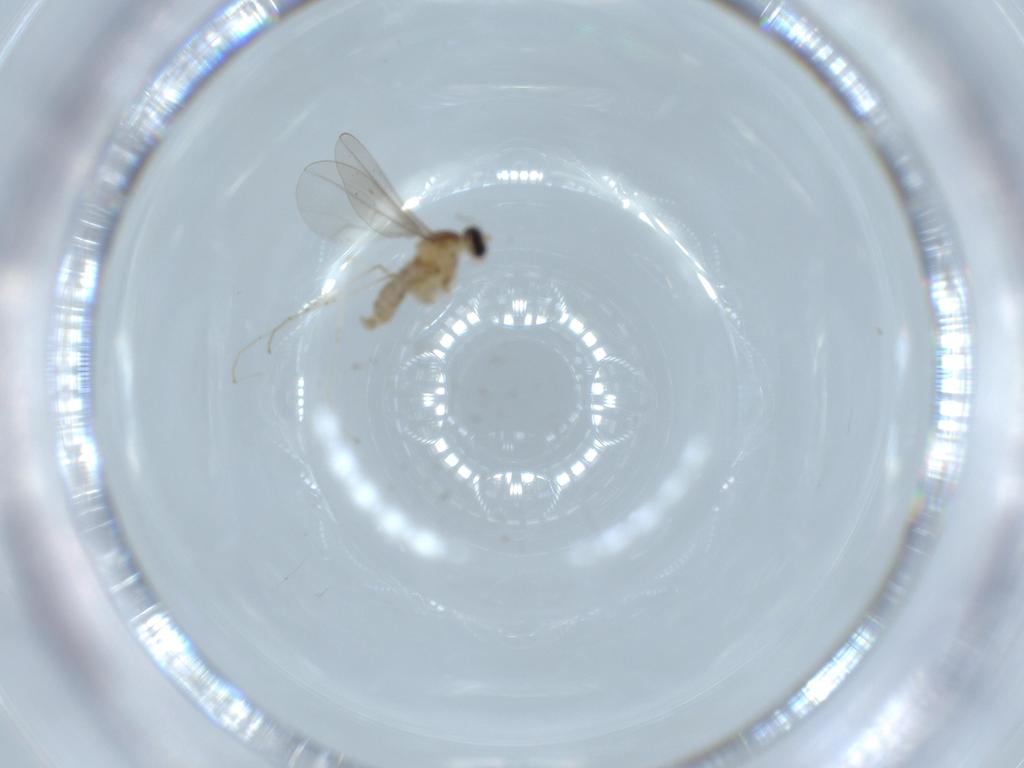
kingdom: Animalia
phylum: Arthropoda
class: Insecta
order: Diptera
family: Cecidomyiidae
